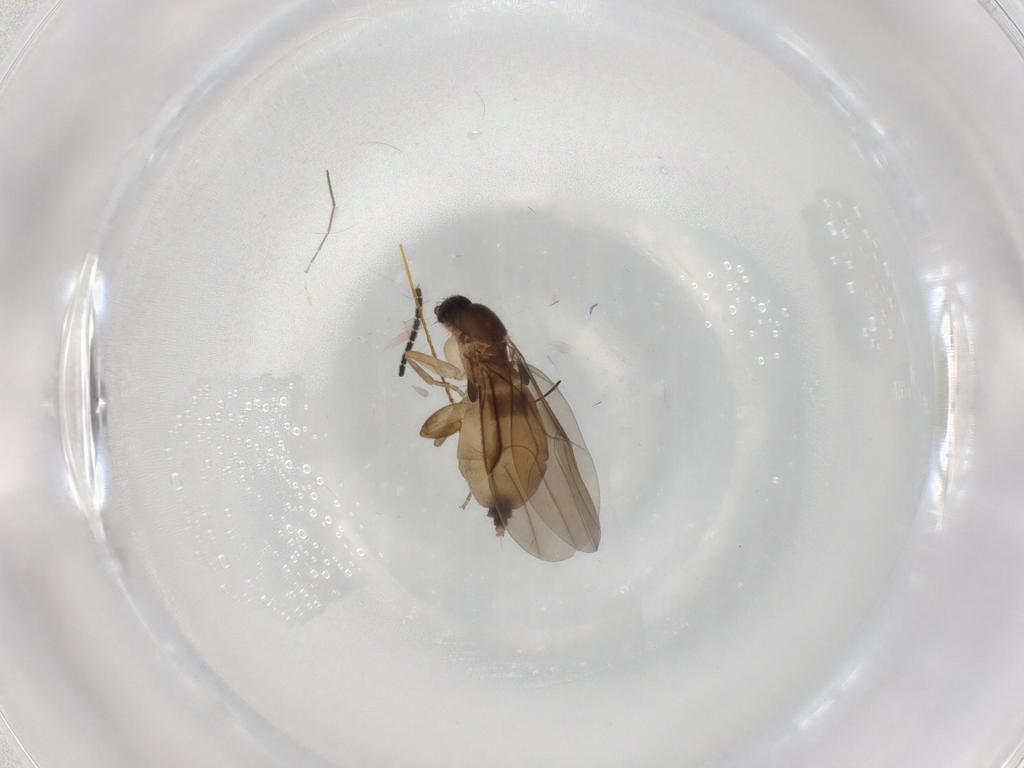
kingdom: Animalia
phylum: Arthropoda
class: Insecta
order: Diptera
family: Phoridae
